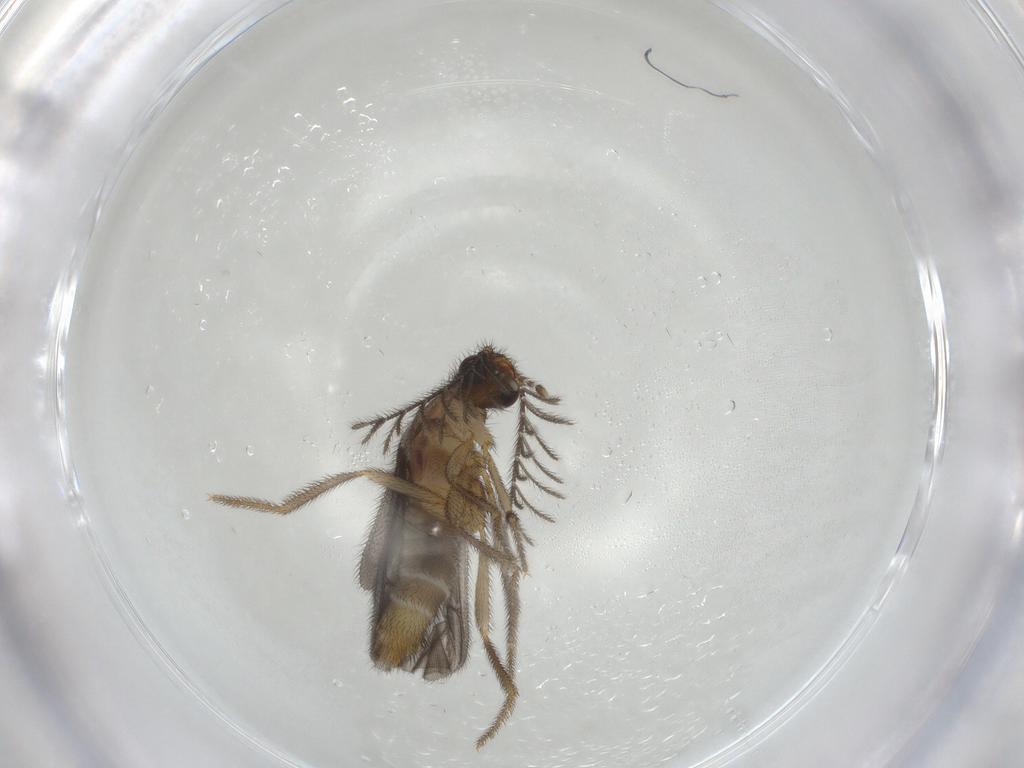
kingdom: Animalia
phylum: Arthropoda
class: Insecta
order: Coleoptera
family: Phengodidae
